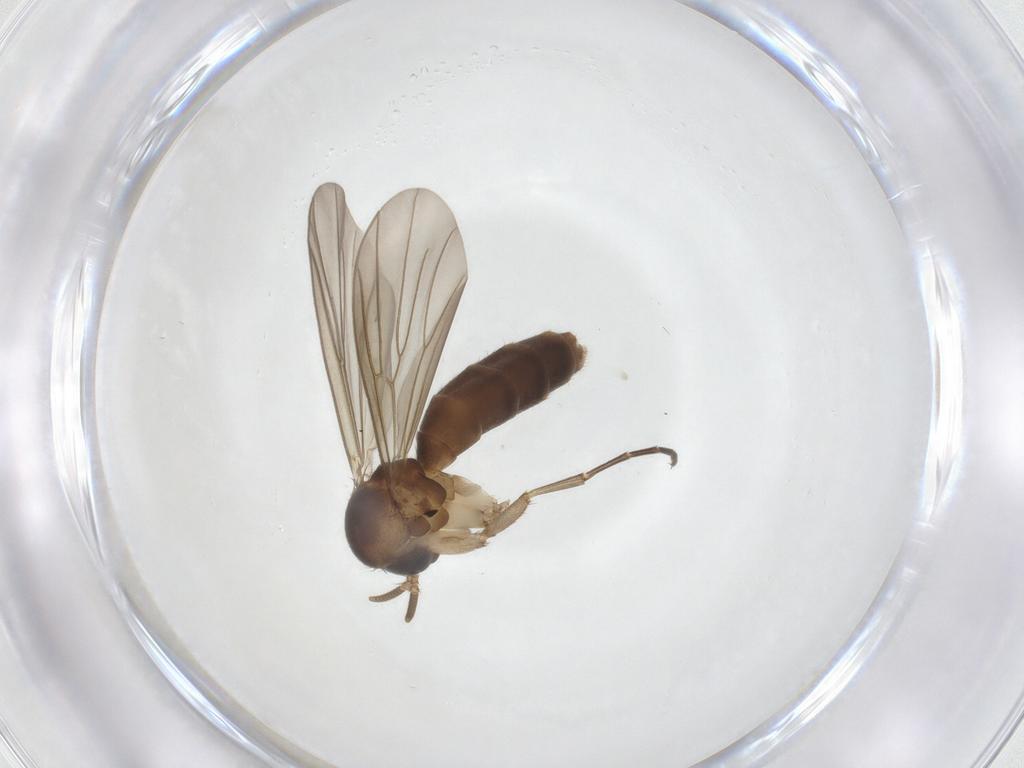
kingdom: Animalia
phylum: Arthropoda
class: Insecta
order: Diptera
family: Mycetophilidae
